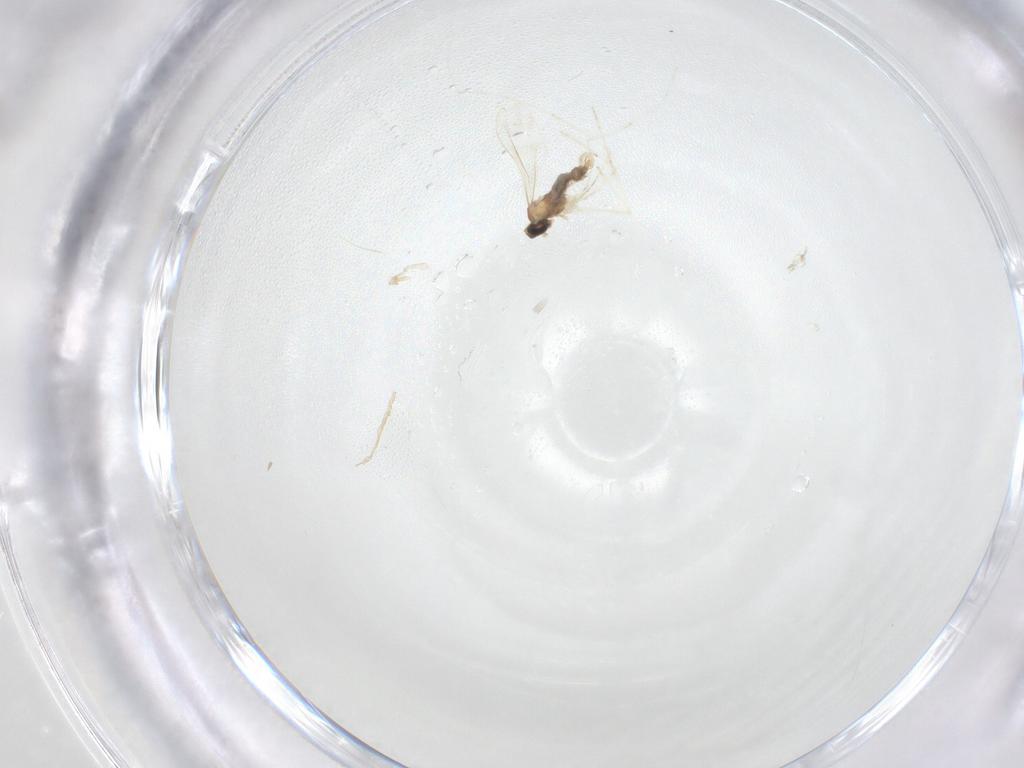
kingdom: Animalia
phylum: Arthropoda
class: Insecta
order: Diptera
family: Cecidomyiidae
